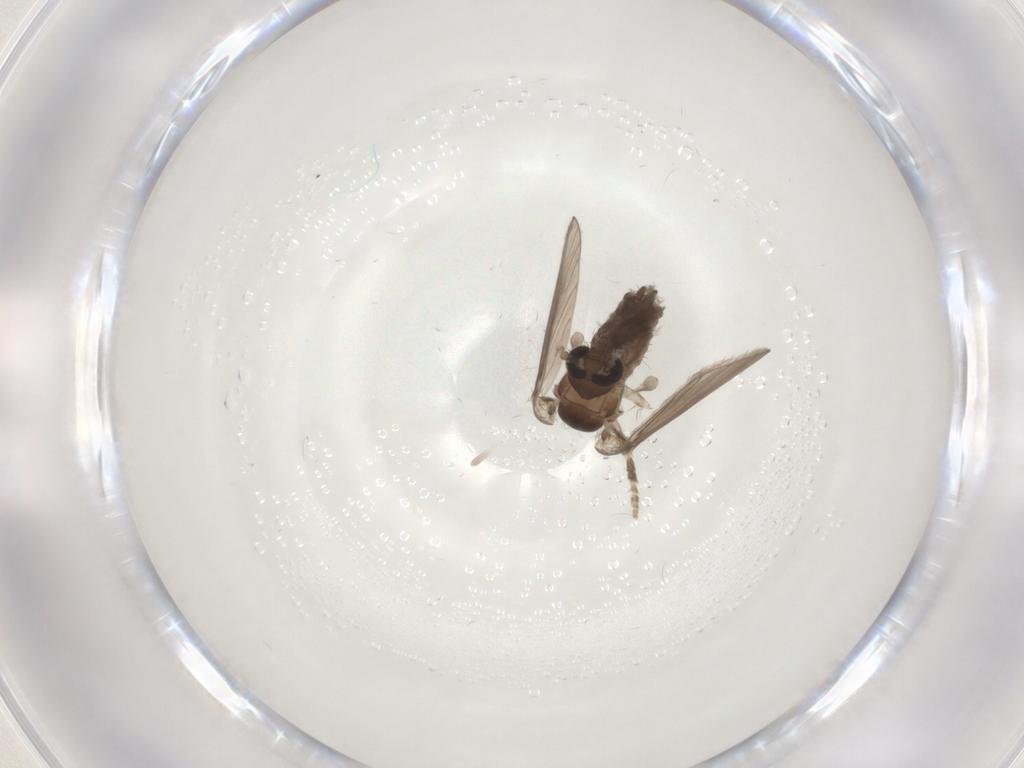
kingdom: Animalia
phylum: Arthropoda
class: Insecta
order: Diptera
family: Psychodidae
